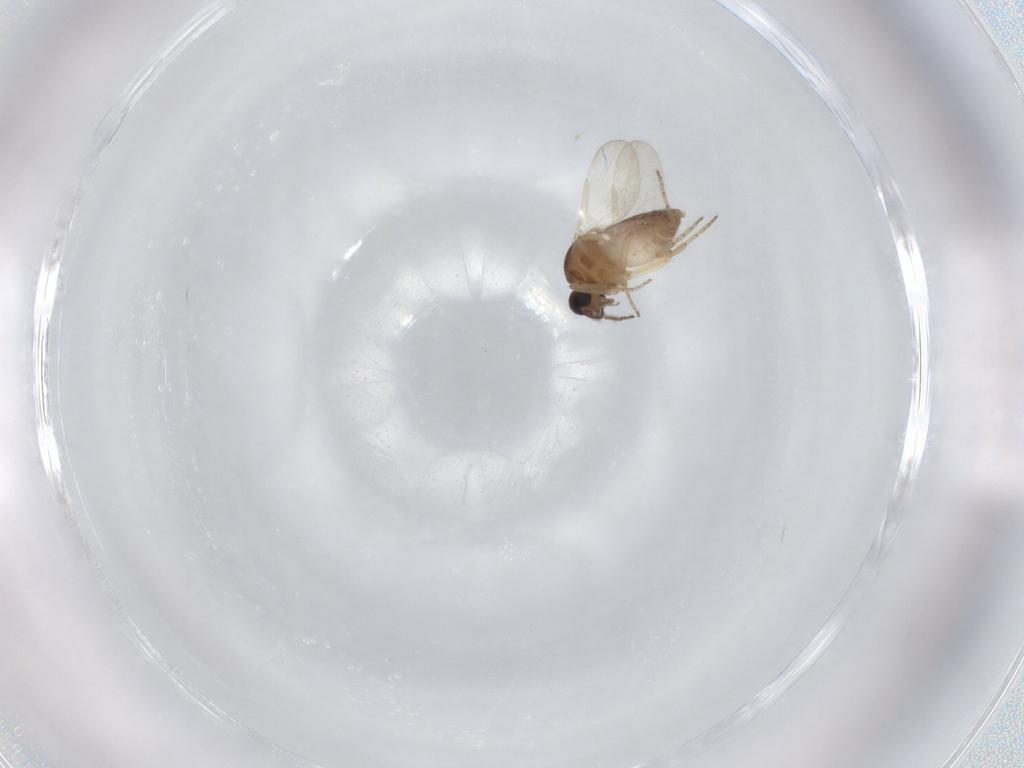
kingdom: Animalia
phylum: Arthropoda
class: Insecta
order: Diptera
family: Ceratopogonidae
